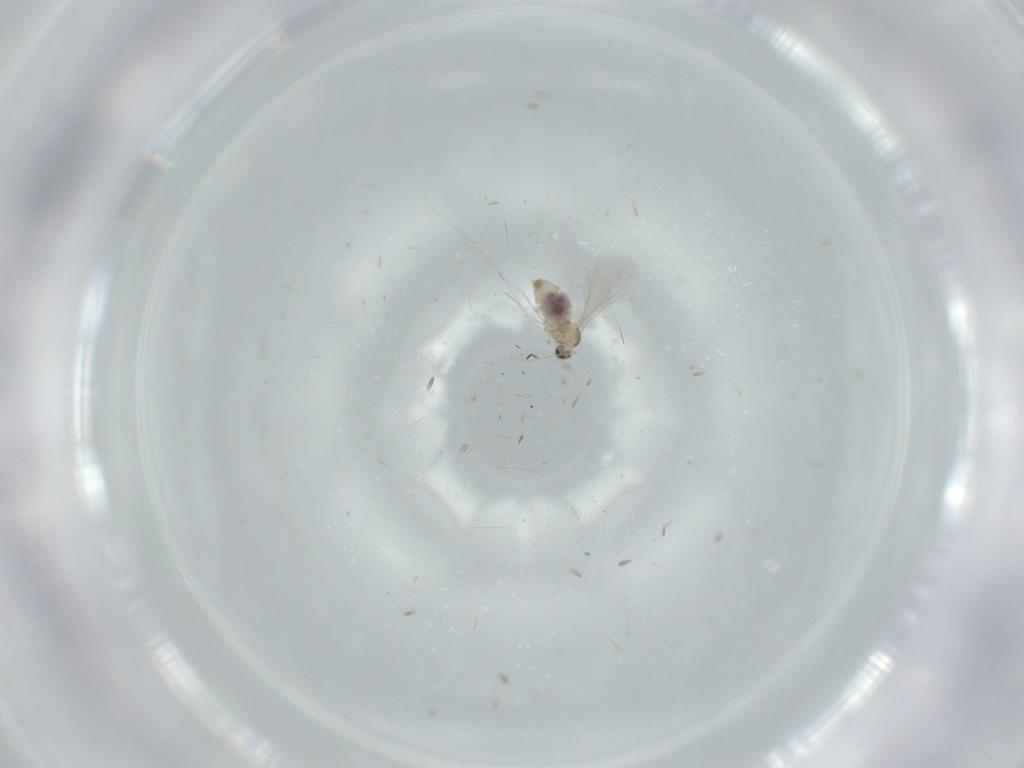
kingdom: Animalia
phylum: Arthropoda
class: Insecta
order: Diptera
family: Cecidomyiidae
